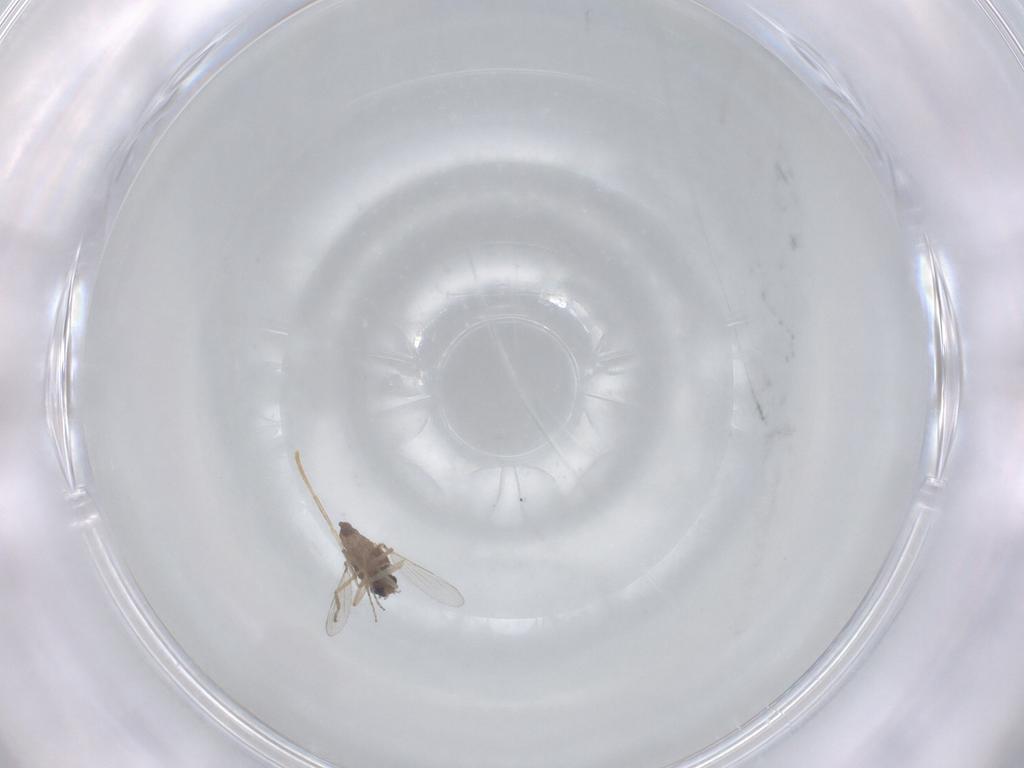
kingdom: Animalia
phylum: Arthropoda
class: Insecta
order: Diptera
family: Psychodidae
